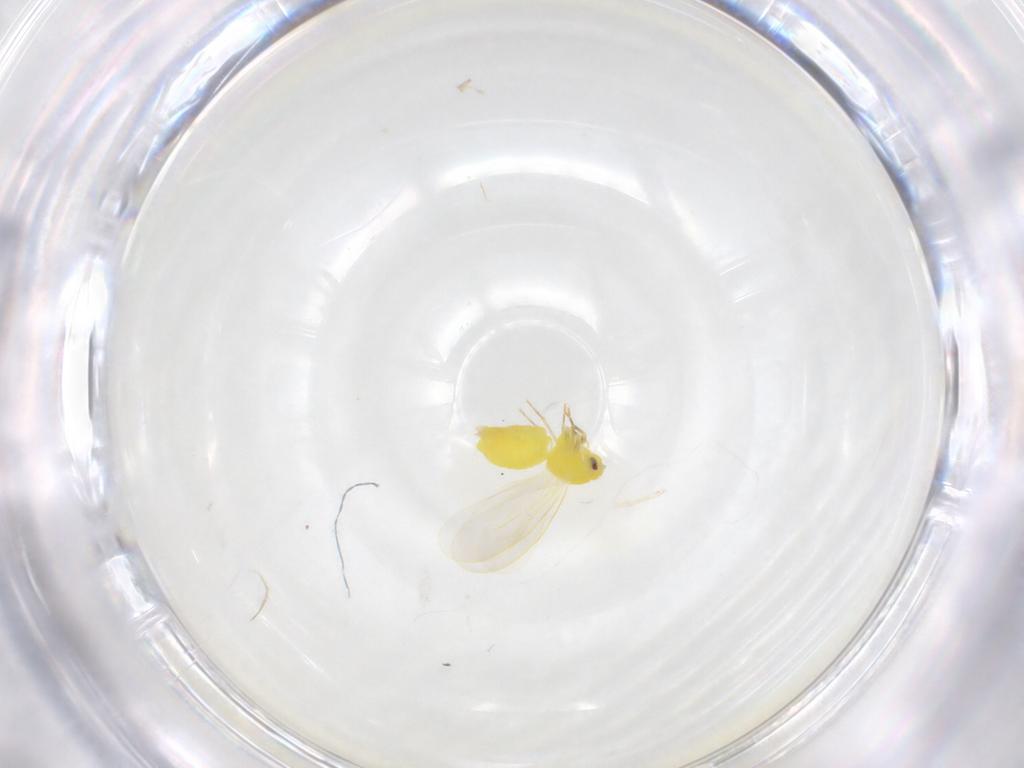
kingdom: Animalia
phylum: Arthropoda
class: Insecta
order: Hemiptera
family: Aleyrodidae
